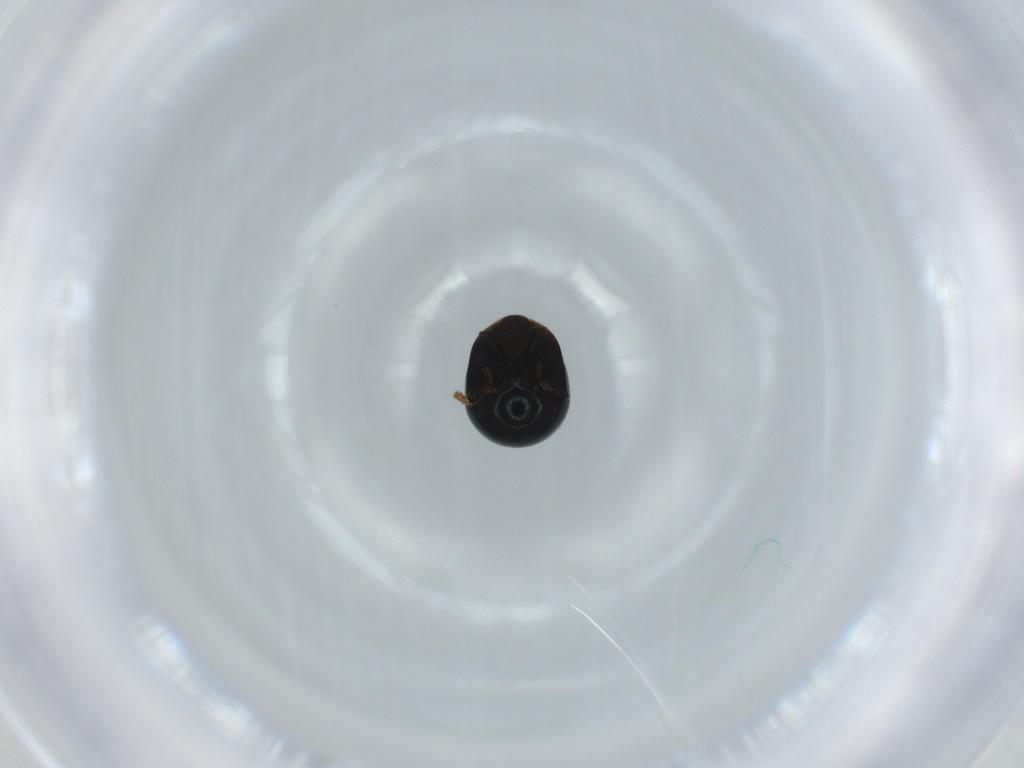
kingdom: Animalia
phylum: Arthropoda
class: Insecta
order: Coleoptera
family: Cybocephalidae
